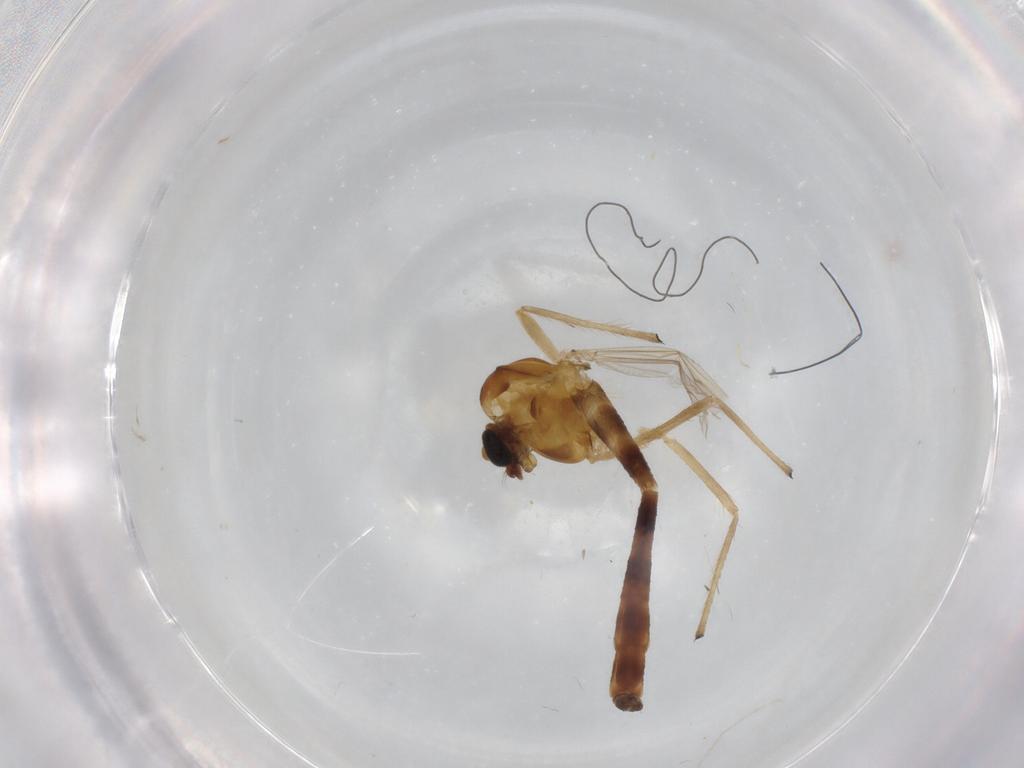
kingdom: Animalia
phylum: Arthropoda
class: Insecta
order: Diptera
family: Chironomidae
